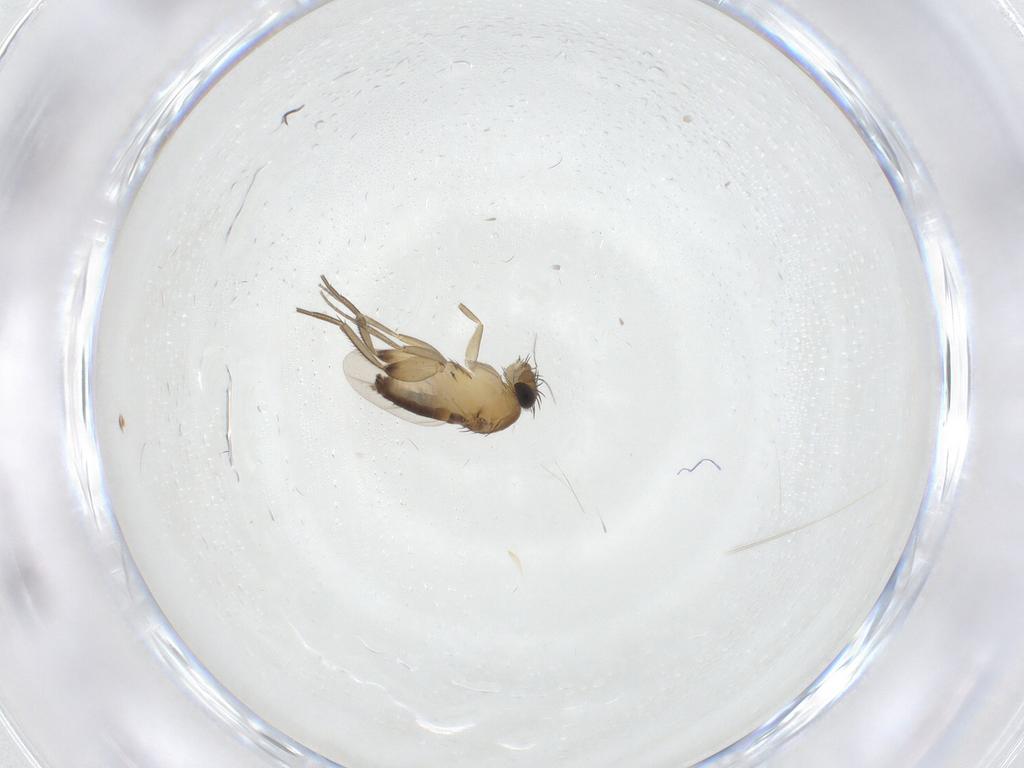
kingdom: Animalia
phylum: Arthropoda
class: Insecta
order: Diptera
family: Phoridae
